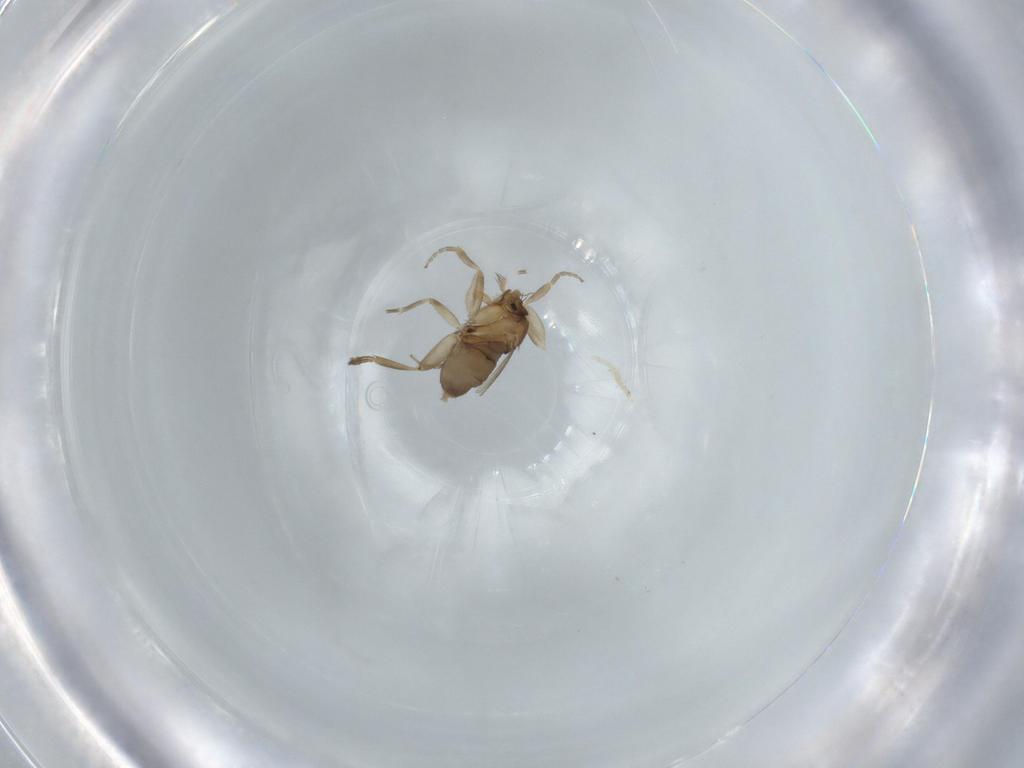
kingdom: Animalia
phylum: Arthropoda
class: Insecta
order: Diptera
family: Phoridae
